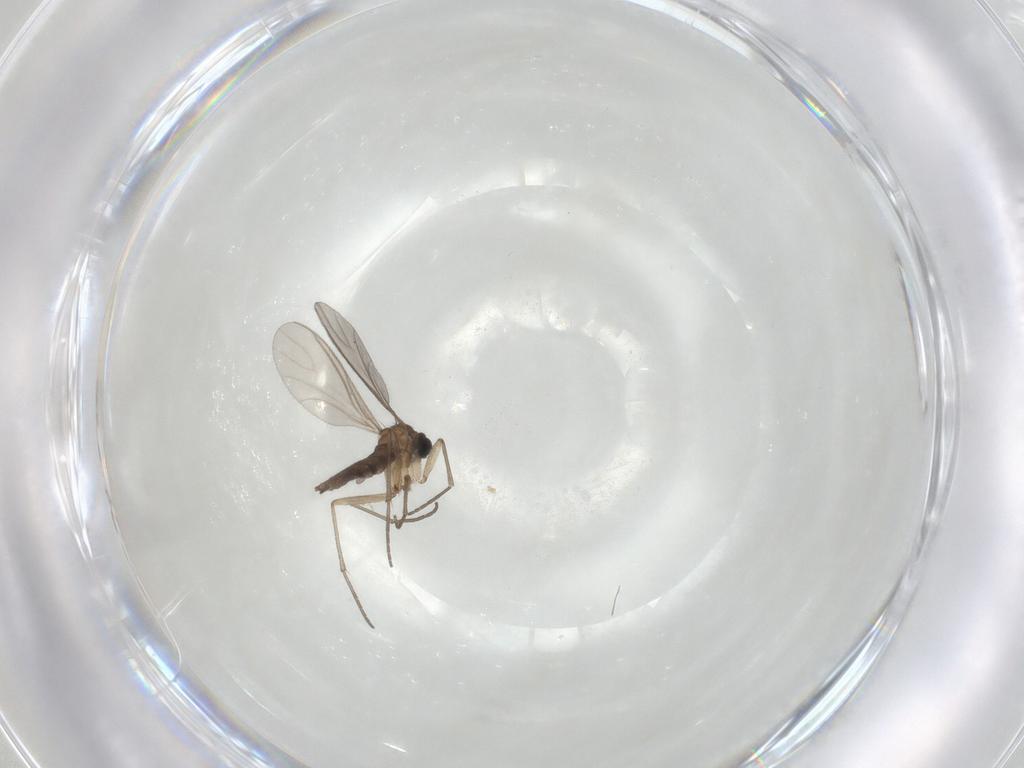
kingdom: Animalia
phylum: Arthropoda
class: Insecta
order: Diptera
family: Sciaridae
